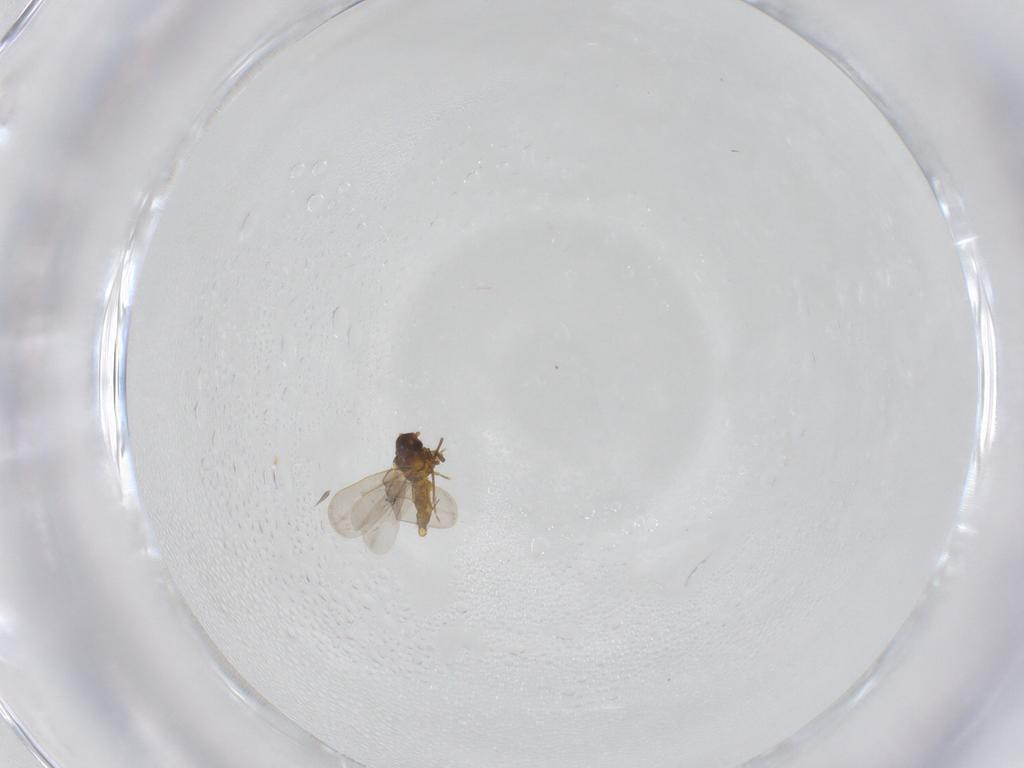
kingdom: Animalia
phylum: Arthropoda
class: Insecta
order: Hemiptera
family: Aleyrodidae
